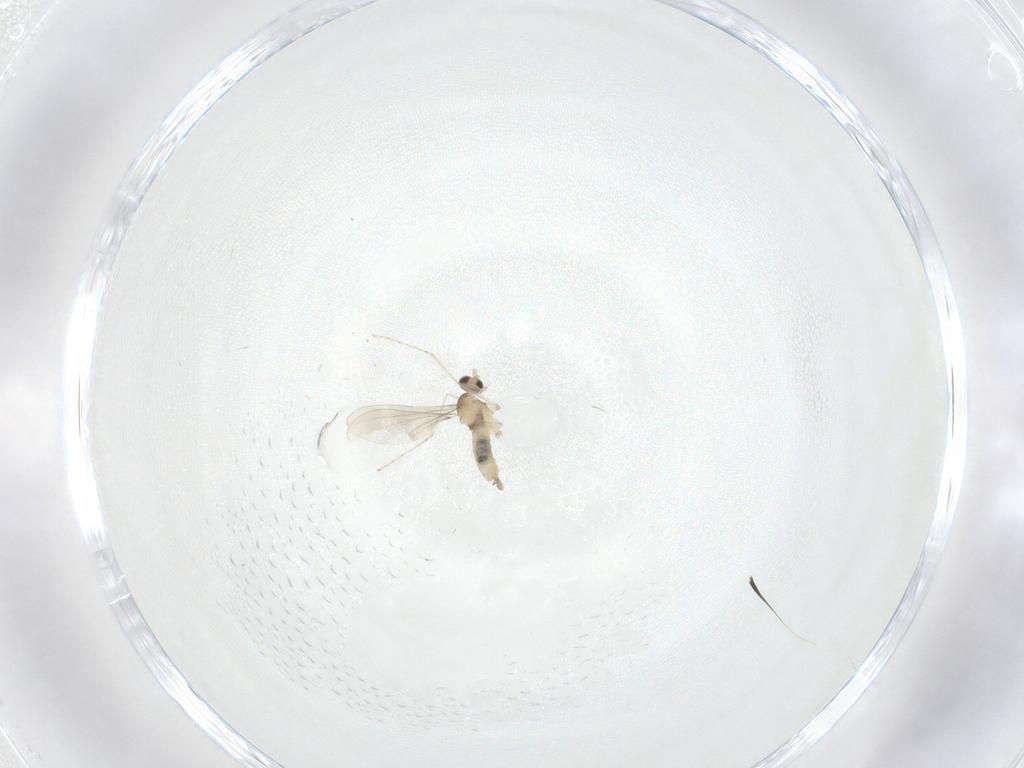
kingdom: Animalia
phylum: Arthropoda
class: Insecta
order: Diptera
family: Cecidomyiidae
